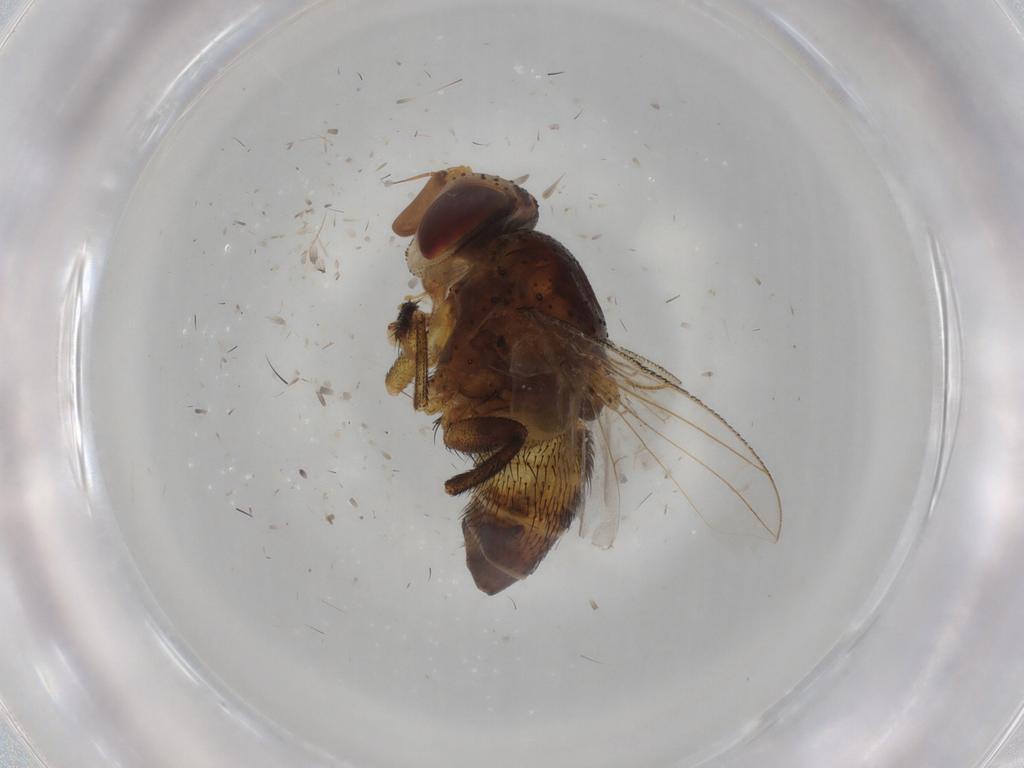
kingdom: Animalia
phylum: Arthropoda
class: Insecta
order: Diptera
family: Glossinidae
